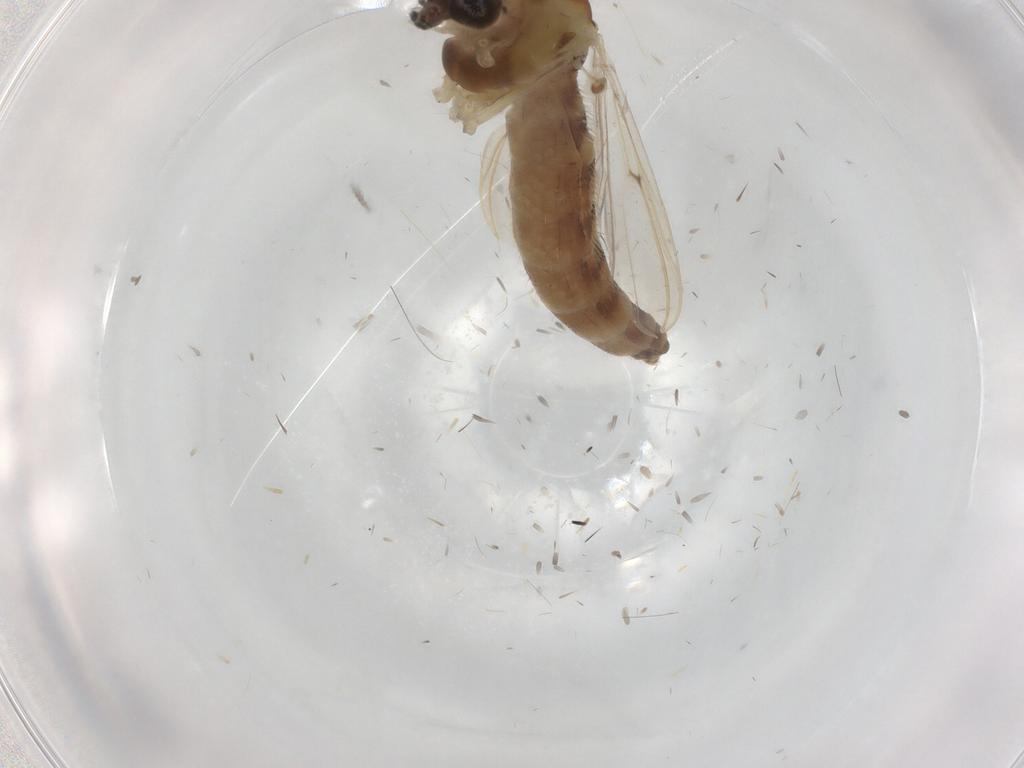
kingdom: Animalia
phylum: Arthropoda
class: Insecta
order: Diptera
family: Chironomidae
